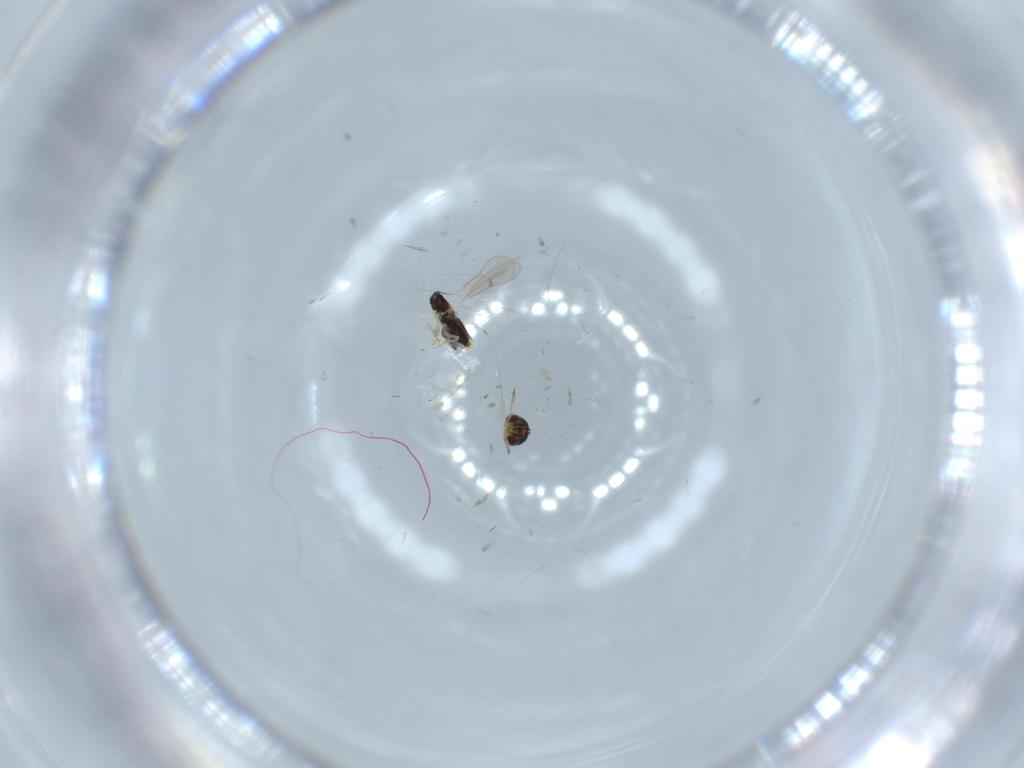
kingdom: Animalia
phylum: Arthropoda
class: Insecta
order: Hymenoptera
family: Aphelinidae
